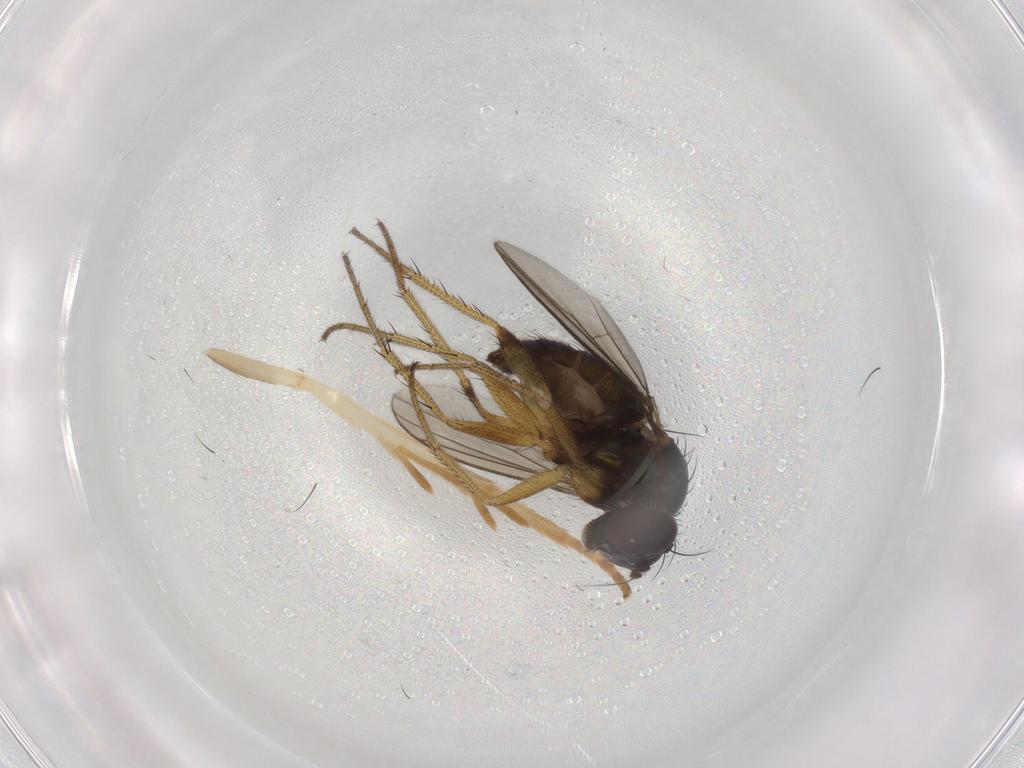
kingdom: Animalia
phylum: Arthropoda
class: Insecta
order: Diptera
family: Dolichopodidae
